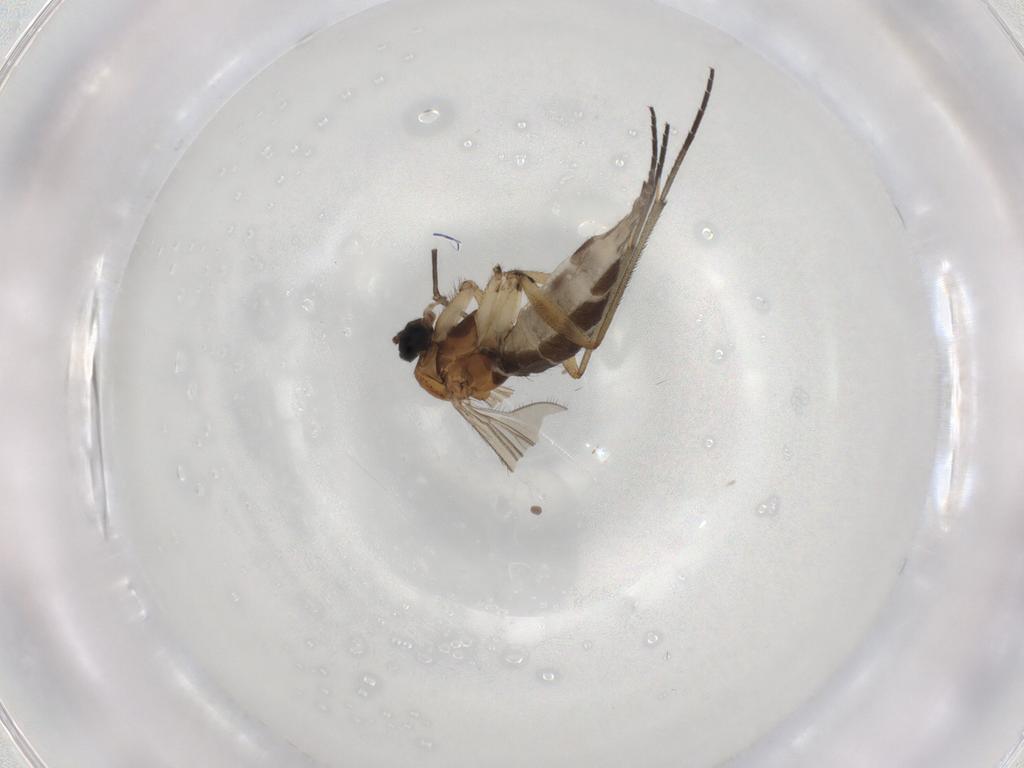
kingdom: Animalia
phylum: Arthropoda
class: Insecta
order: Diptera
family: Sciaridae
